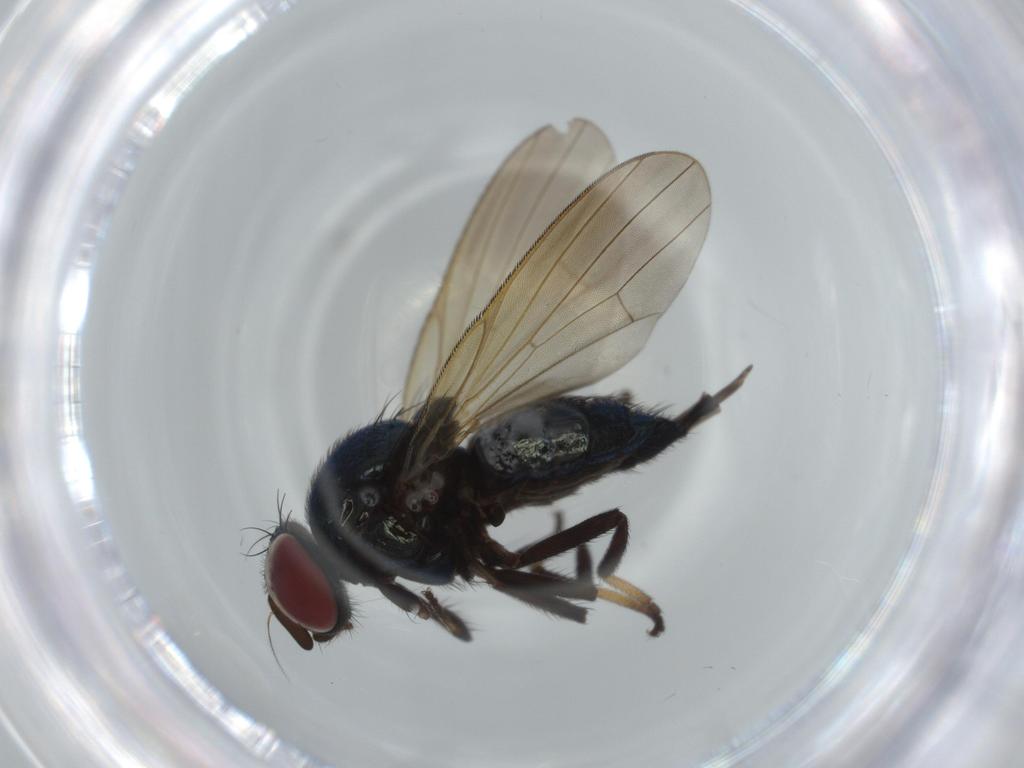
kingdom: Animalia
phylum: Arthropoda
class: Insecta
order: Diptera
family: Lonchaeidae
